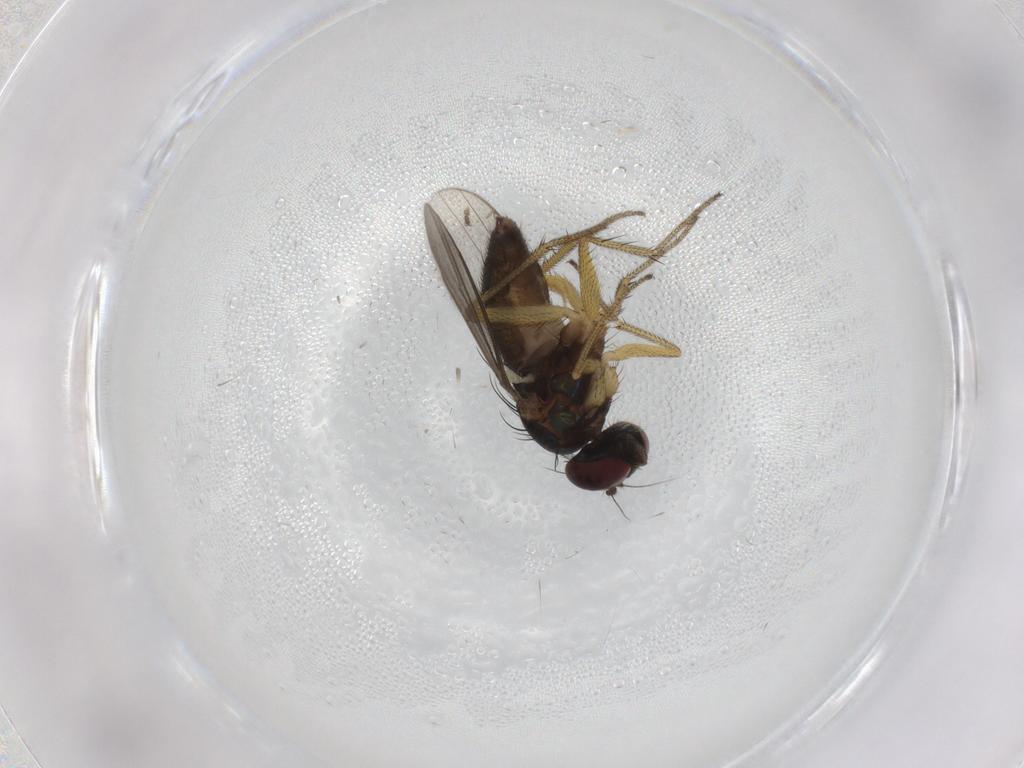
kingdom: Animalia
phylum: Arthropoda
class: Insecta
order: Diptera
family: Chironomidae
